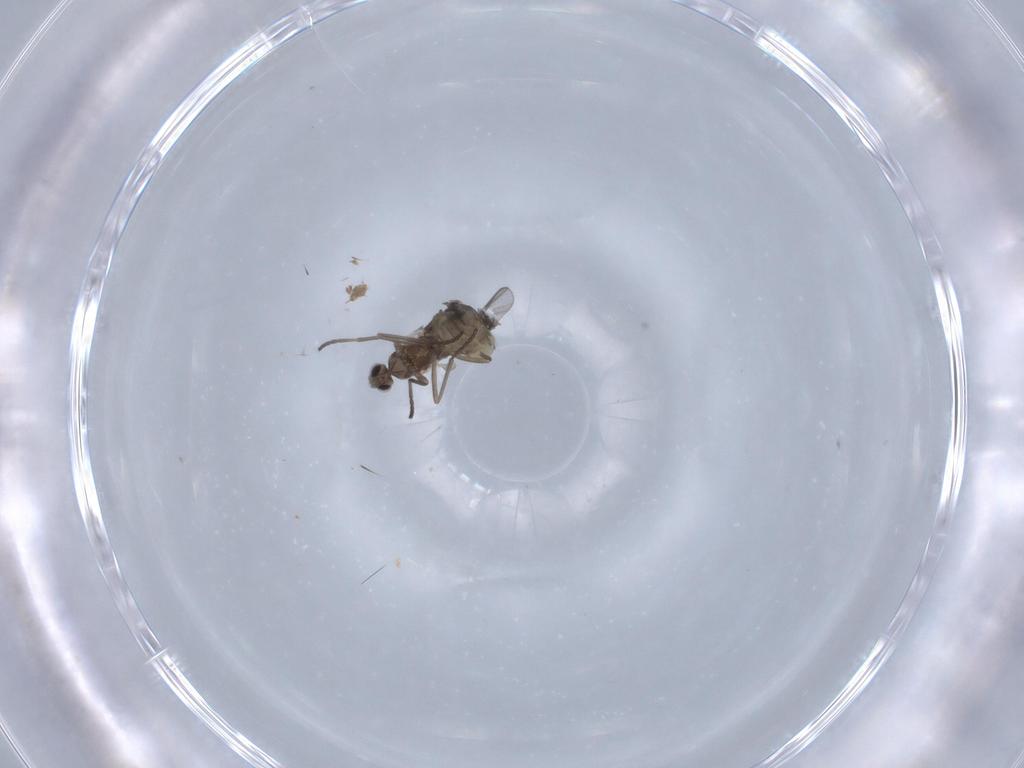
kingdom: Animalia
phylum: Arthropoda
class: Insecta
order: Diptera
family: Cecidomyiidae
